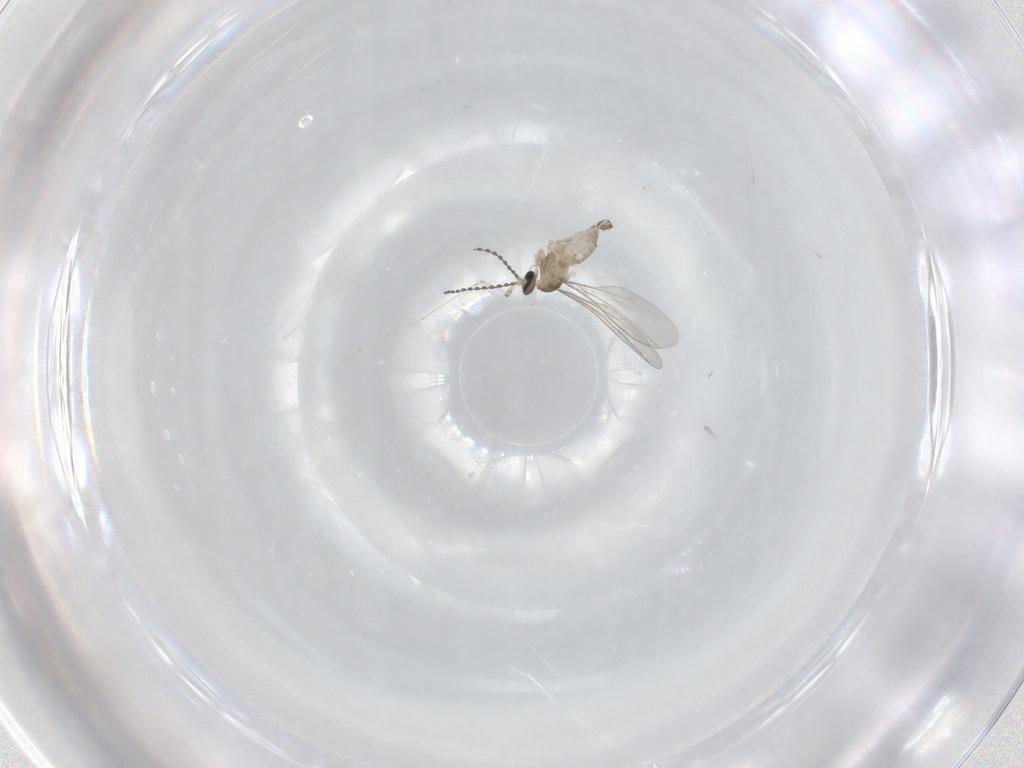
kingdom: Animalia
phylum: Arthropoda
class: Insecta
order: Diptera
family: Cecidomyiidae
